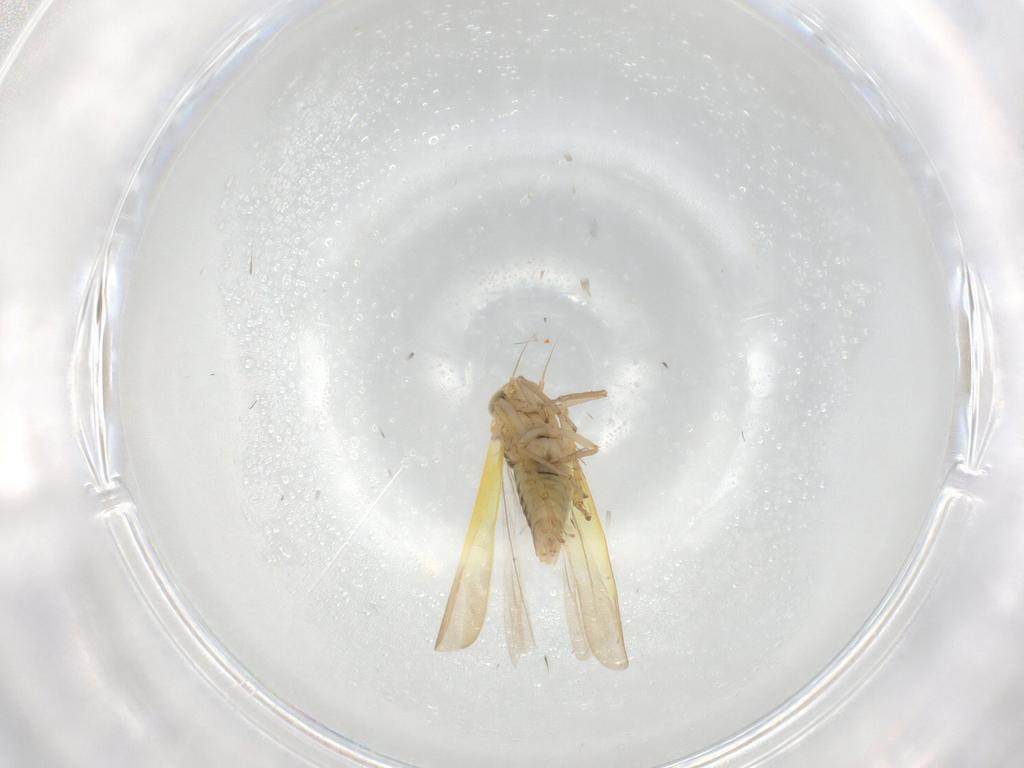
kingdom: Animalia
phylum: Arthropoda
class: Insecta
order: Hemiptera
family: Cicadellidae
